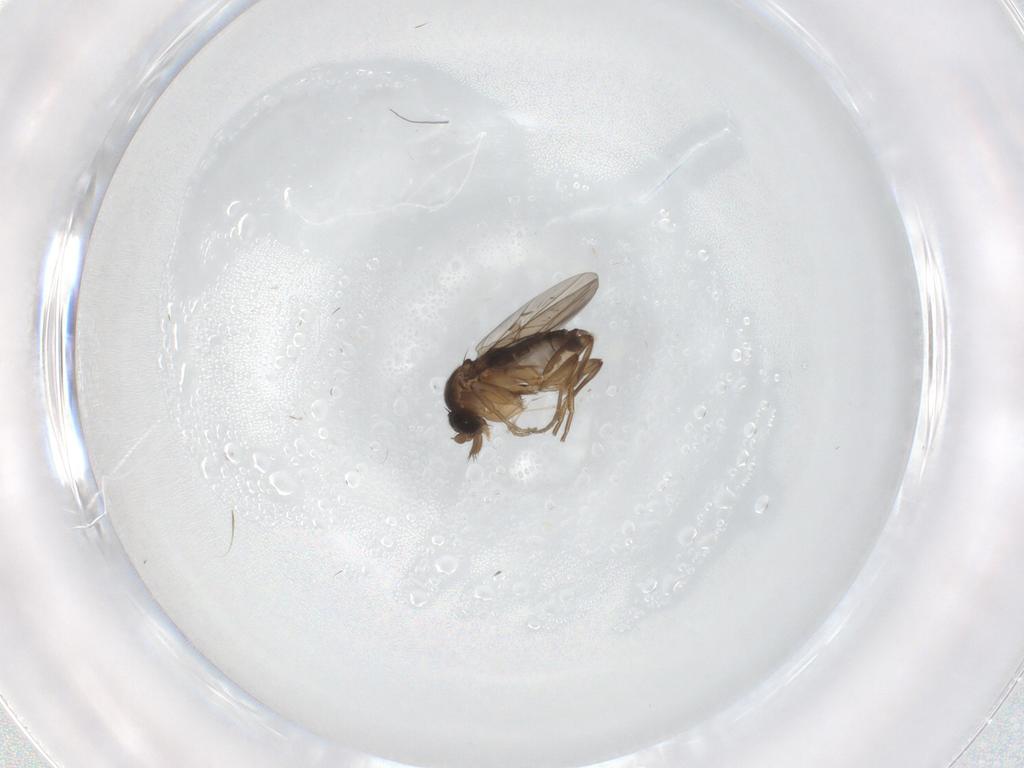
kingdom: Animalia
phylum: Arthropoda
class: Insecta
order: Diptera
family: Phoridae
